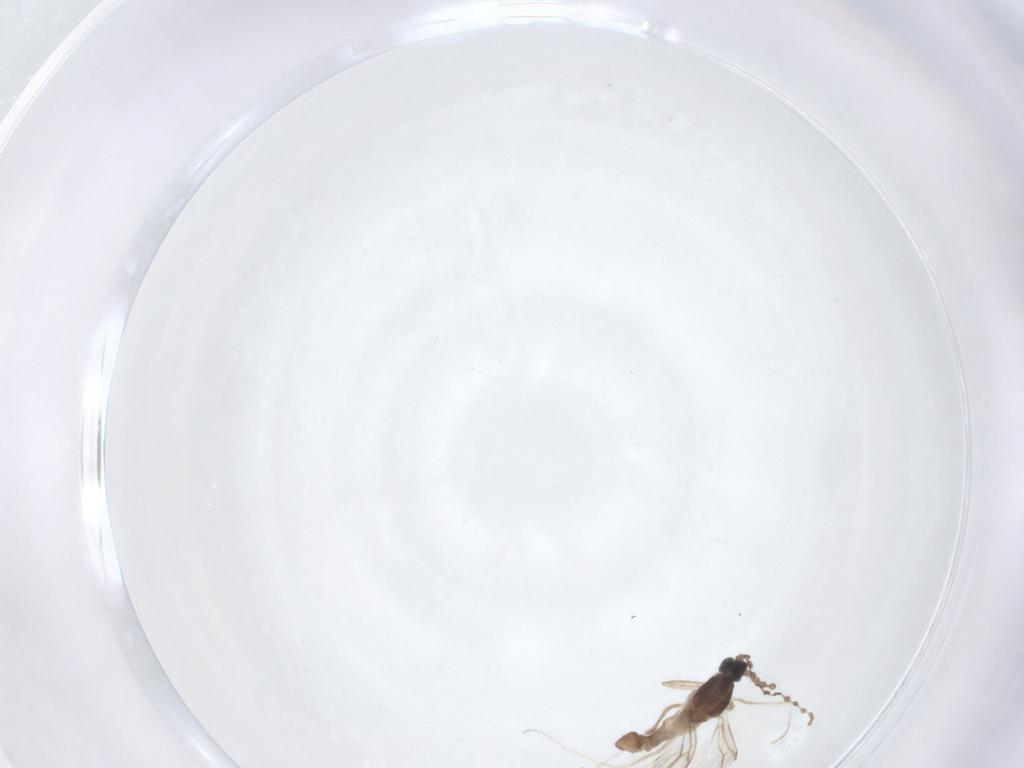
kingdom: Animalia
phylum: Arthropoda
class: Insecta
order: Diptera
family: Cecidomyiidae
